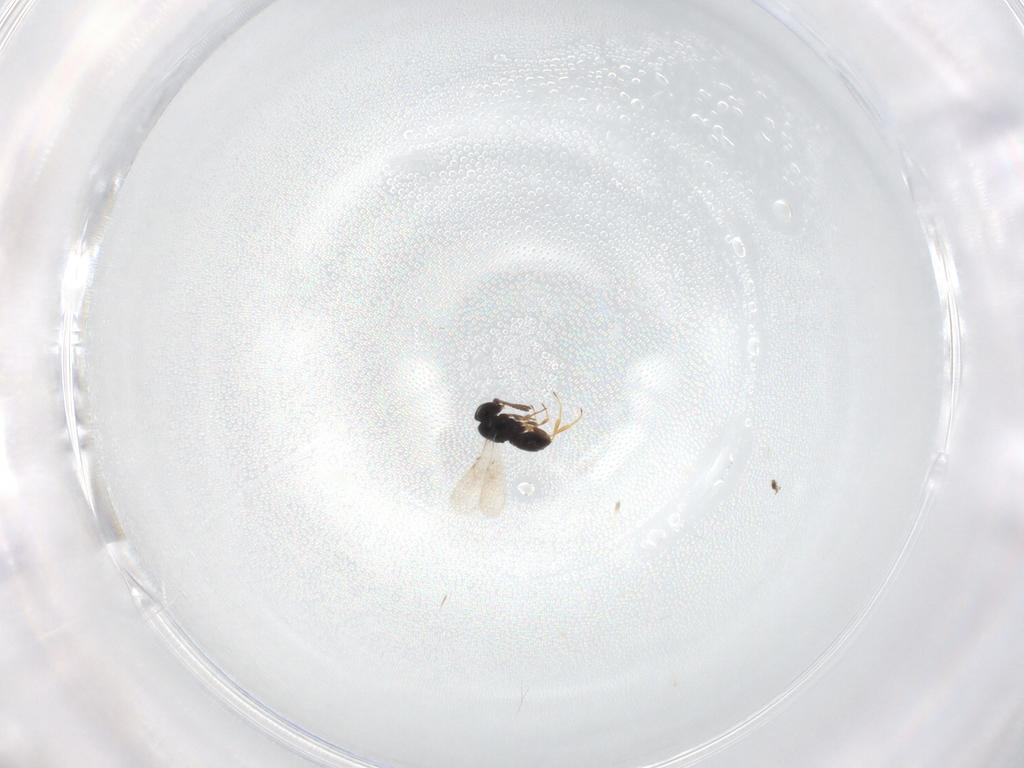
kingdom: Animalia
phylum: Arthropoda
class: Insecta
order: Hymenoptera
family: Scelionidae
